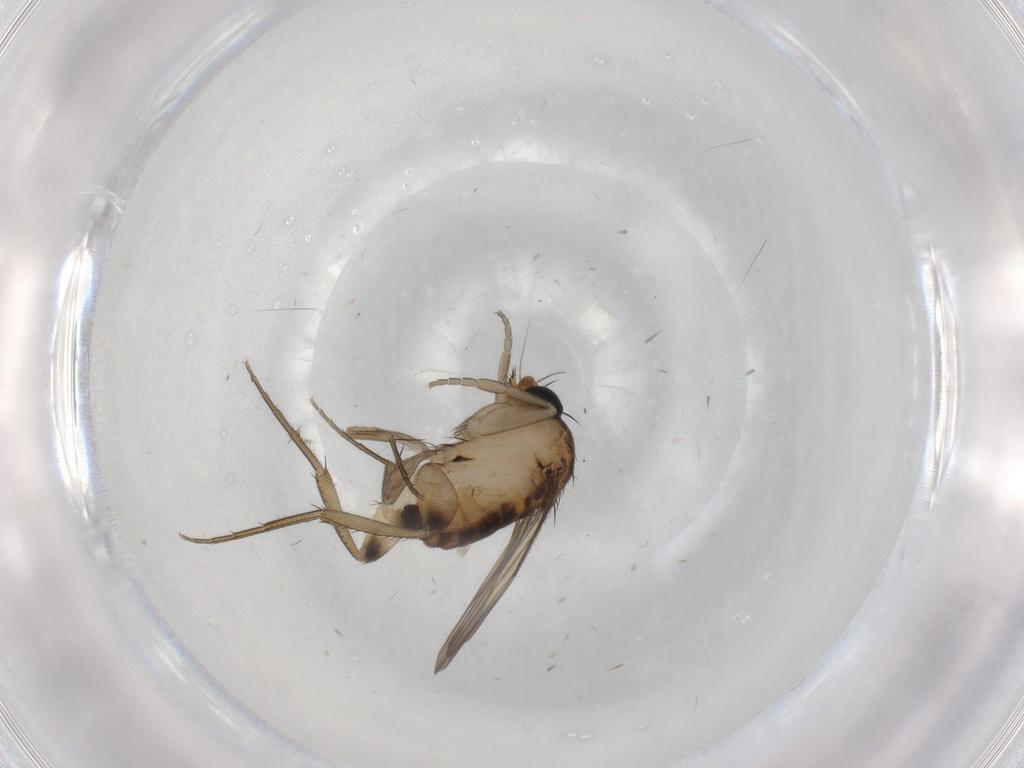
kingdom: Animalia
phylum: Arthropoda
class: Insecta
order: Diptera
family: Phoridae
